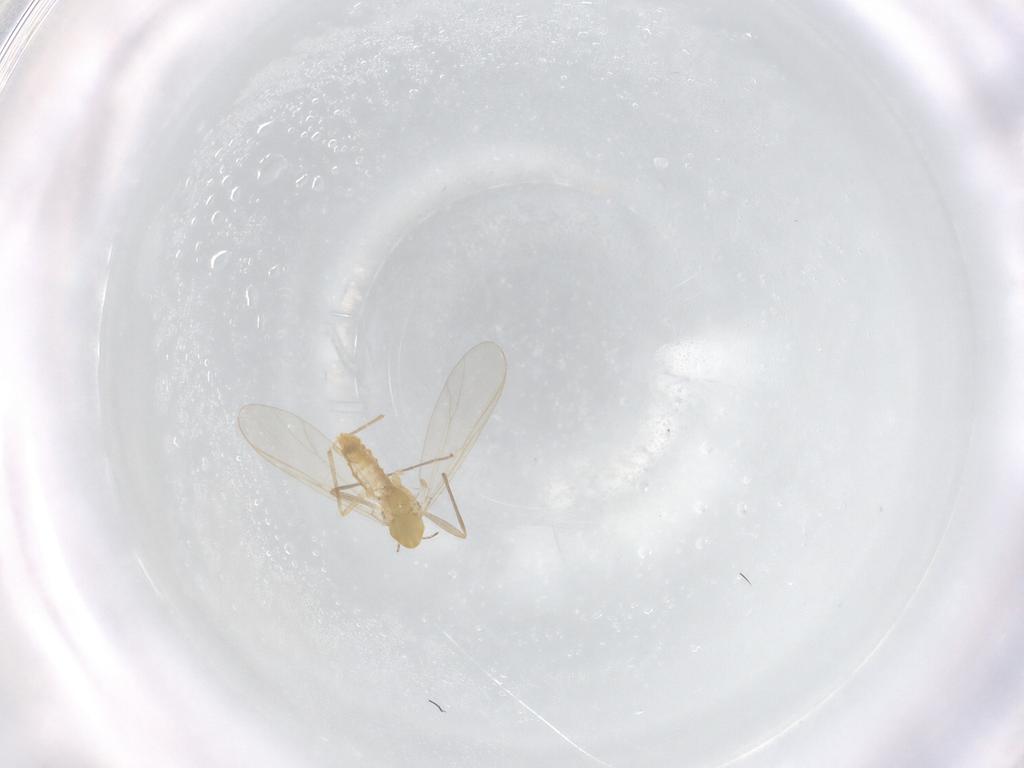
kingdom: Animalia
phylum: Arthropoda
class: Insecta
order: Diptera
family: Chironomidae
